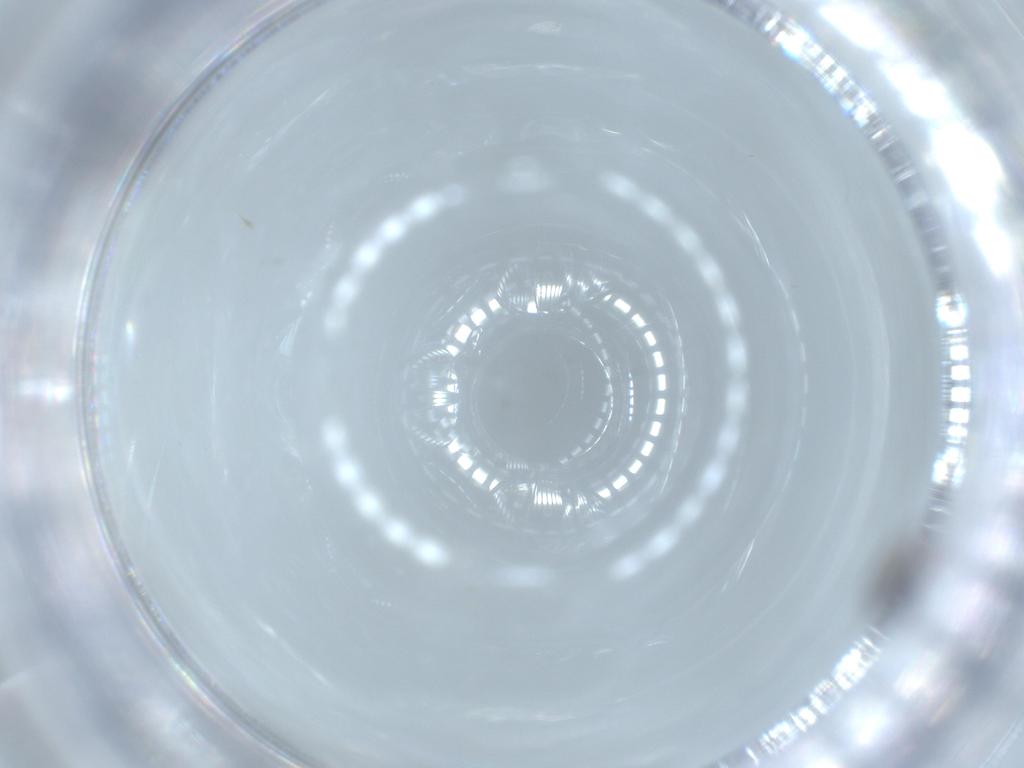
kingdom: Animalia
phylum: Arthropoda
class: Insecta
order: Diptera
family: Sciaridae
